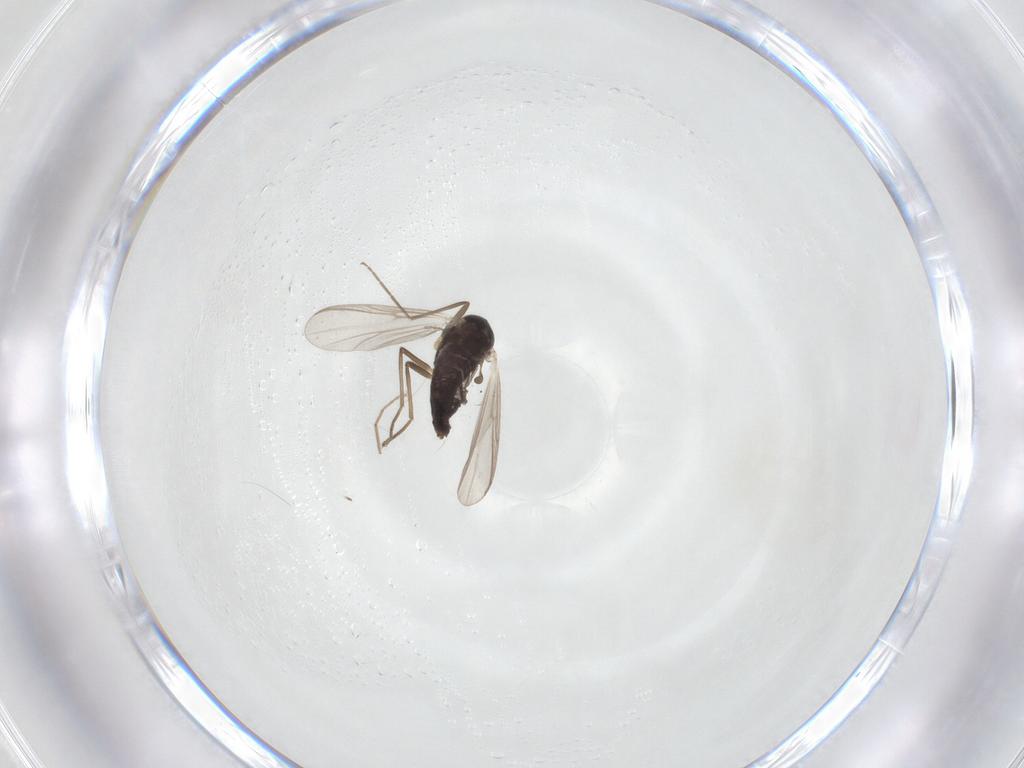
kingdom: Animalia
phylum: Arthropoda
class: Insecta
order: Diptera
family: Chironomidae
